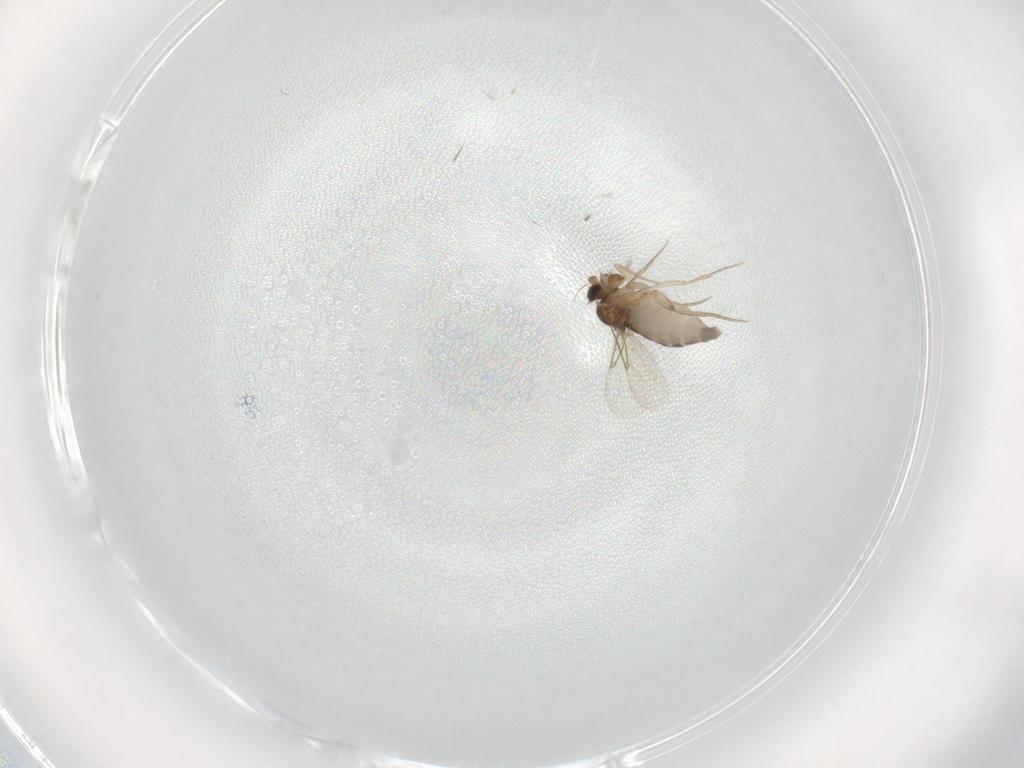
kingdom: Animalia
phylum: Arthropoda
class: Insecta
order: Diptera
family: Phoridae
